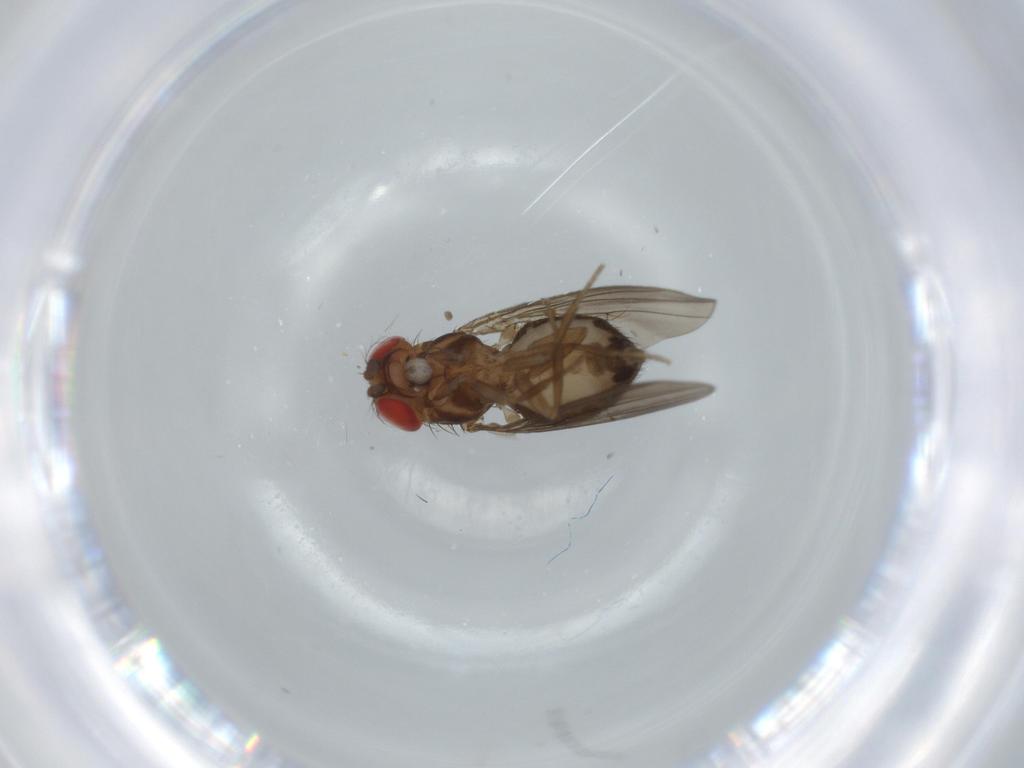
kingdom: Animalia
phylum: Arthropoda
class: Insecta
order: Diptera
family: Drosophilidae
